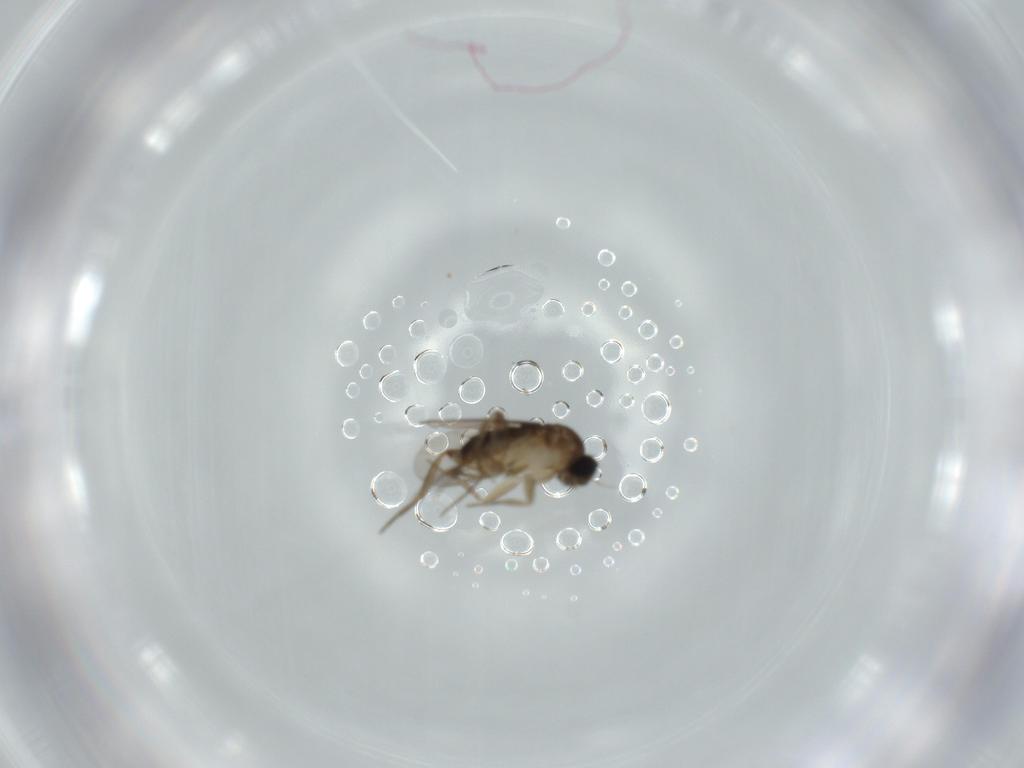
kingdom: Animalia
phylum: Arthropoda
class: Insecta
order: Diptera
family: Phoridae
